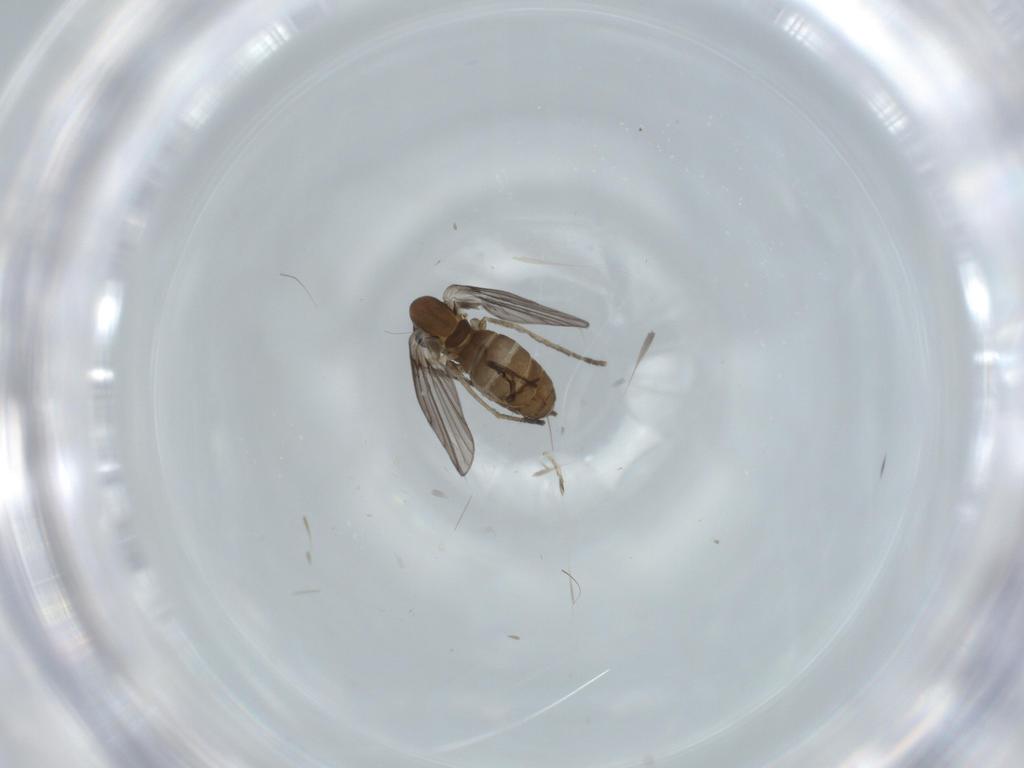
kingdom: Animalia
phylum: Arthropoda
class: Insecta
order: Diptera
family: Psychodidae
